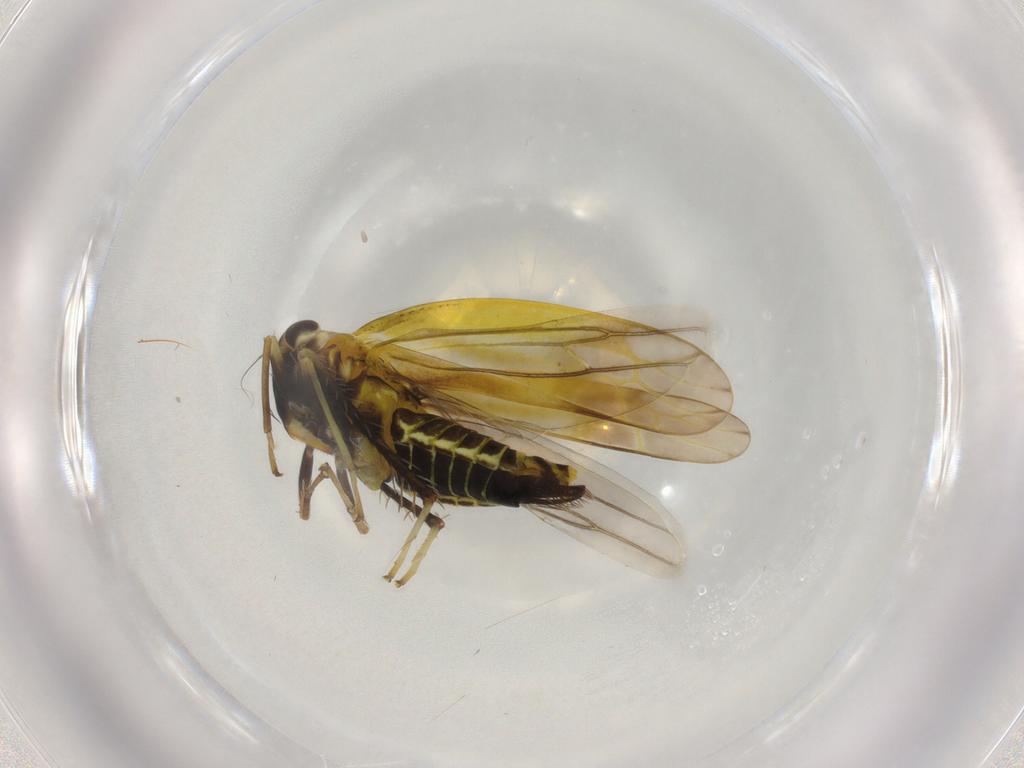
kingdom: Animalia
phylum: Arthropoda
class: Insecta
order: Hemiptera
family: Cicadellidae
